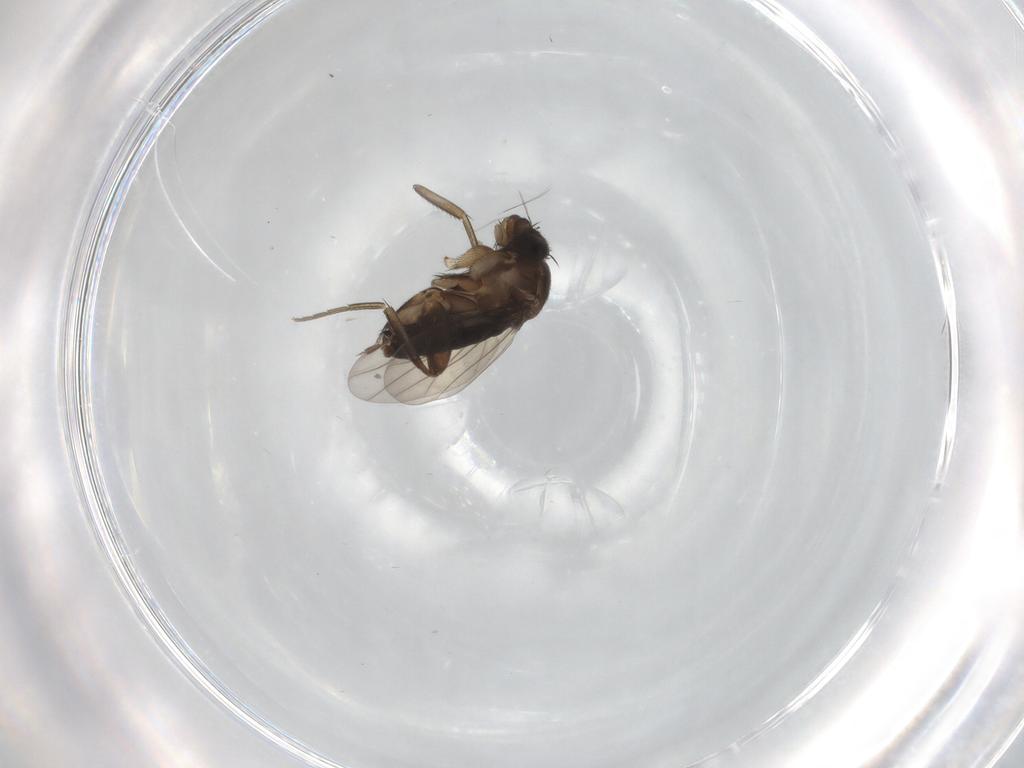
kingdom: Animalia
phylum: Arthropoda
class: Insecta
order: Diptera
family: Phoridae
